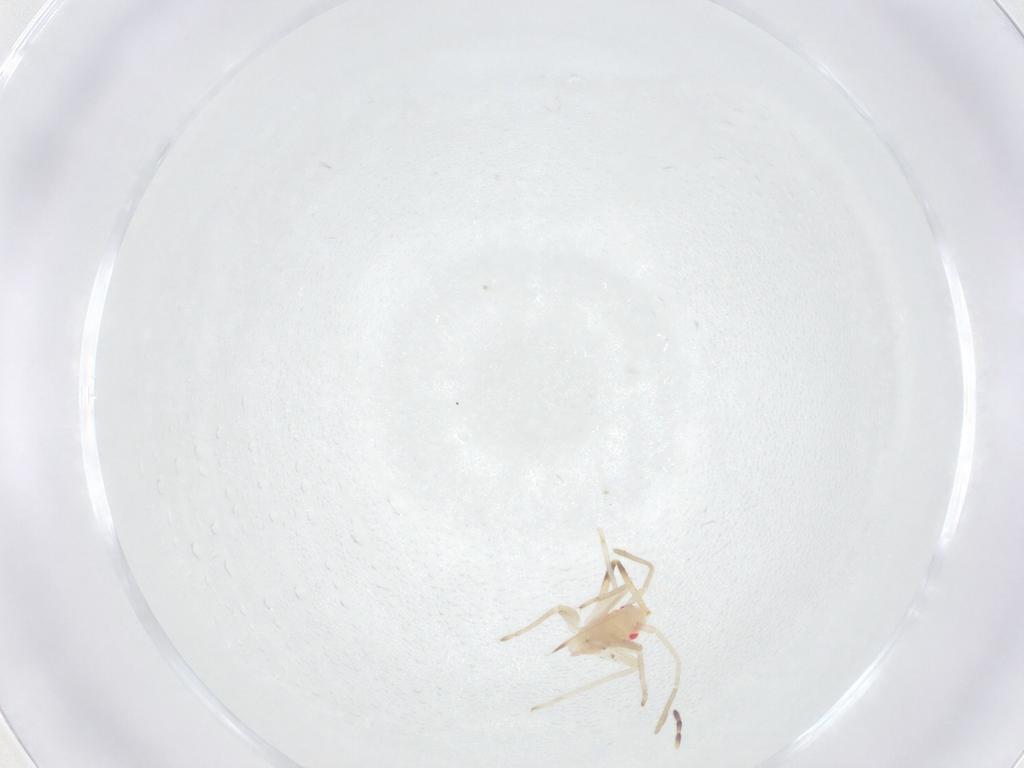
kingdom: Animalia
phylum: Arthropoda
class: Insecta
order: Hemiptera
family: Miridae
